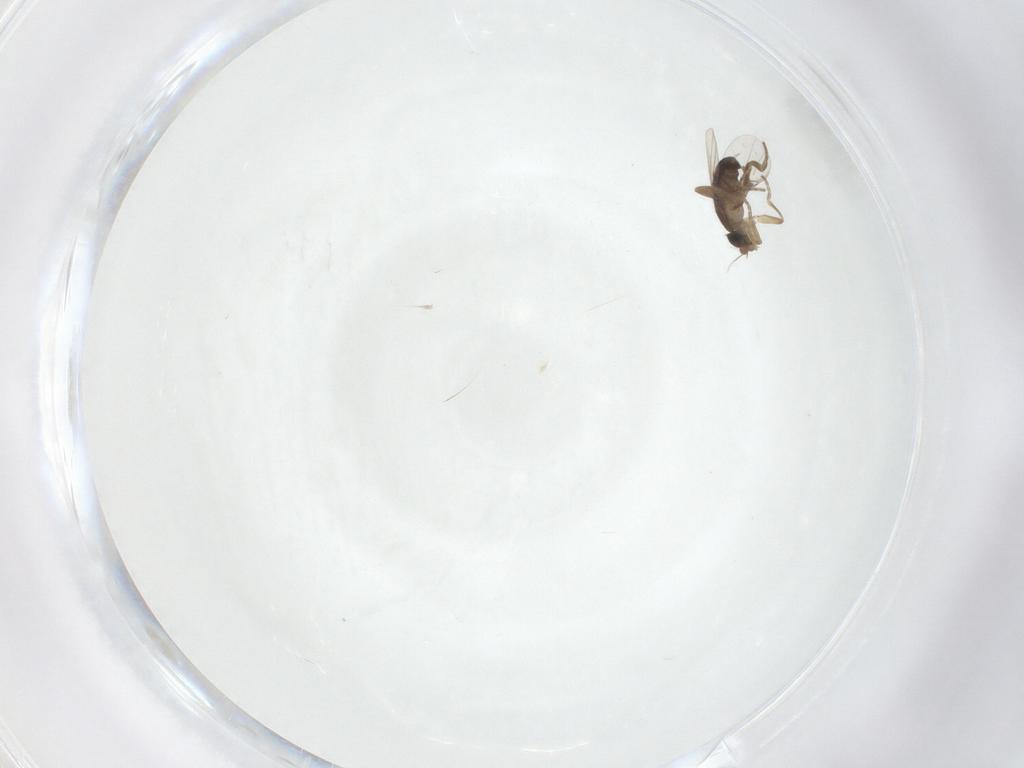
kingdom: Animalia
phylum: Arthropoda
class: Insecta
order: Diptera
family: Phoridae
